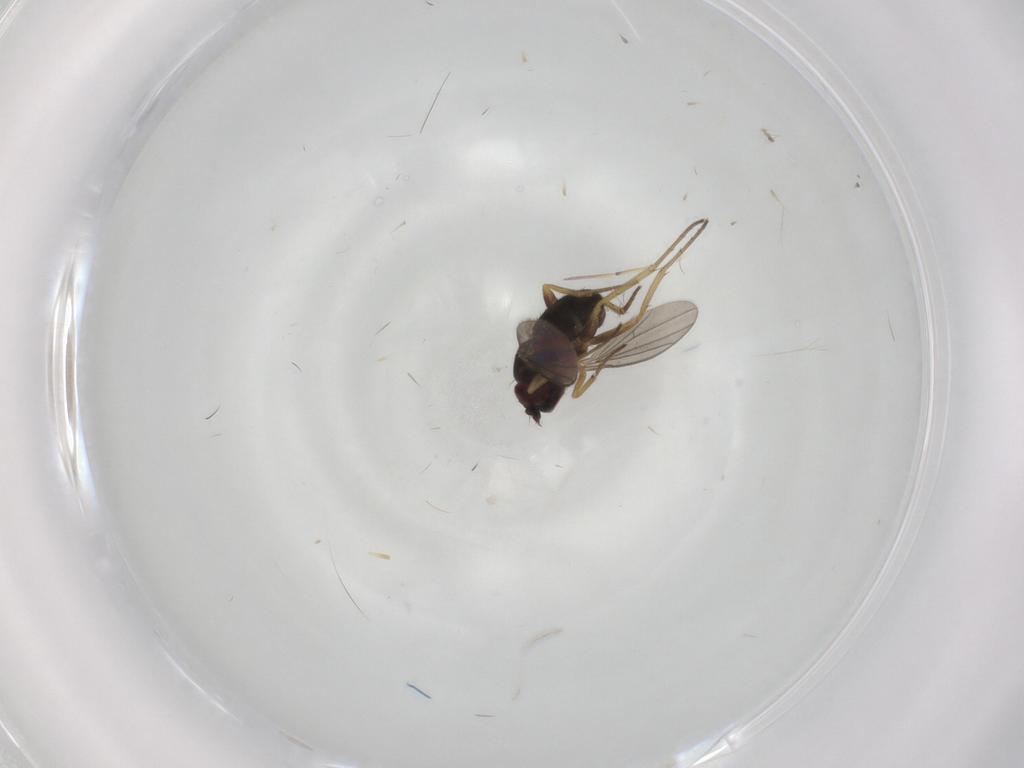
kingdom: Animalia
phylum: Arthropoda
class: Insecta
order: Diptera
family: Dolichopodidae
